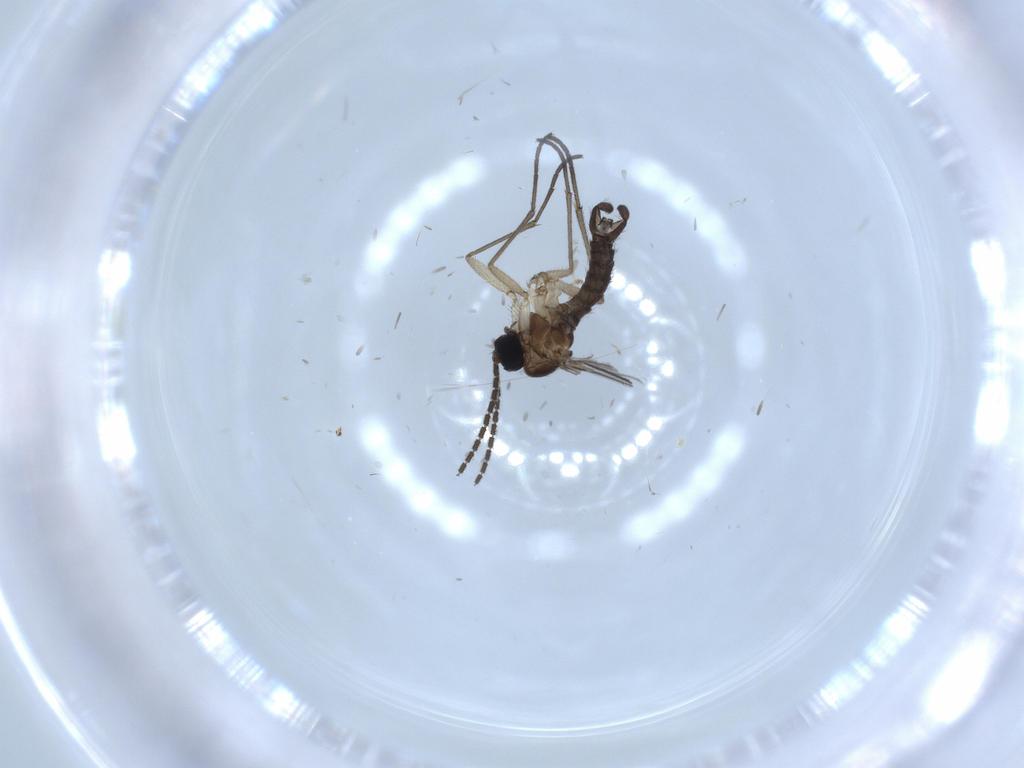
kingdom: Animalia
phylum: Arthropoda
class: Insecta
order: Diptera
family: Sciaridae
